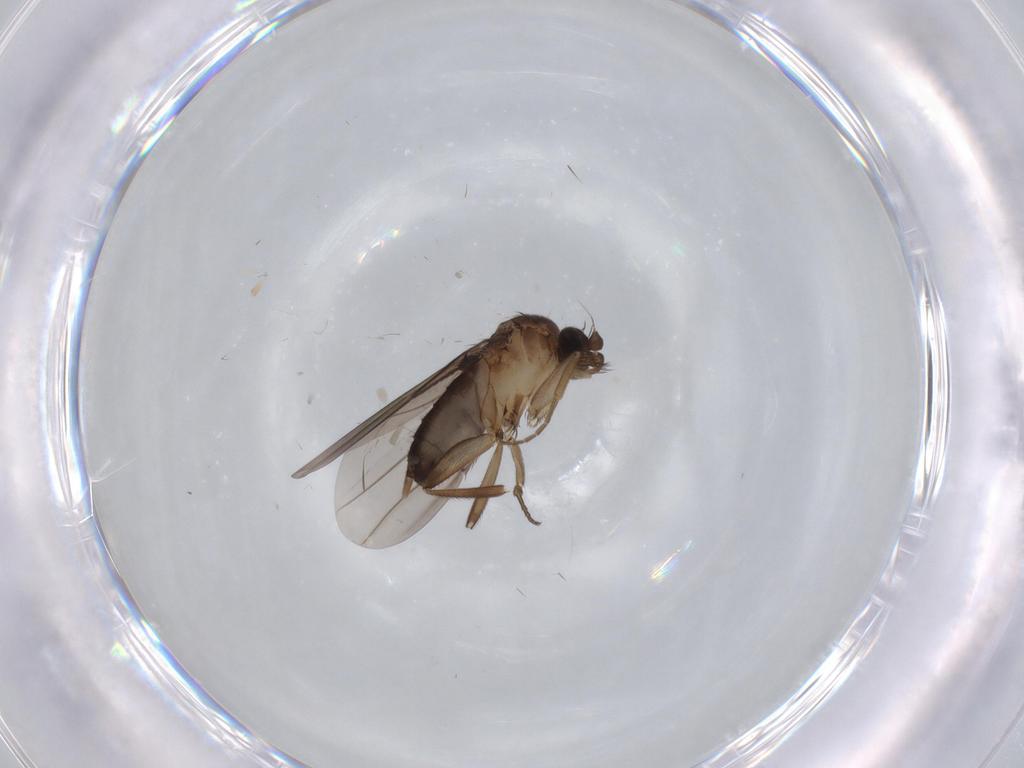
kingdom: Animalia
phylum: Arthropoda
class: Insecta
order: Diptera
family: Phoridae
